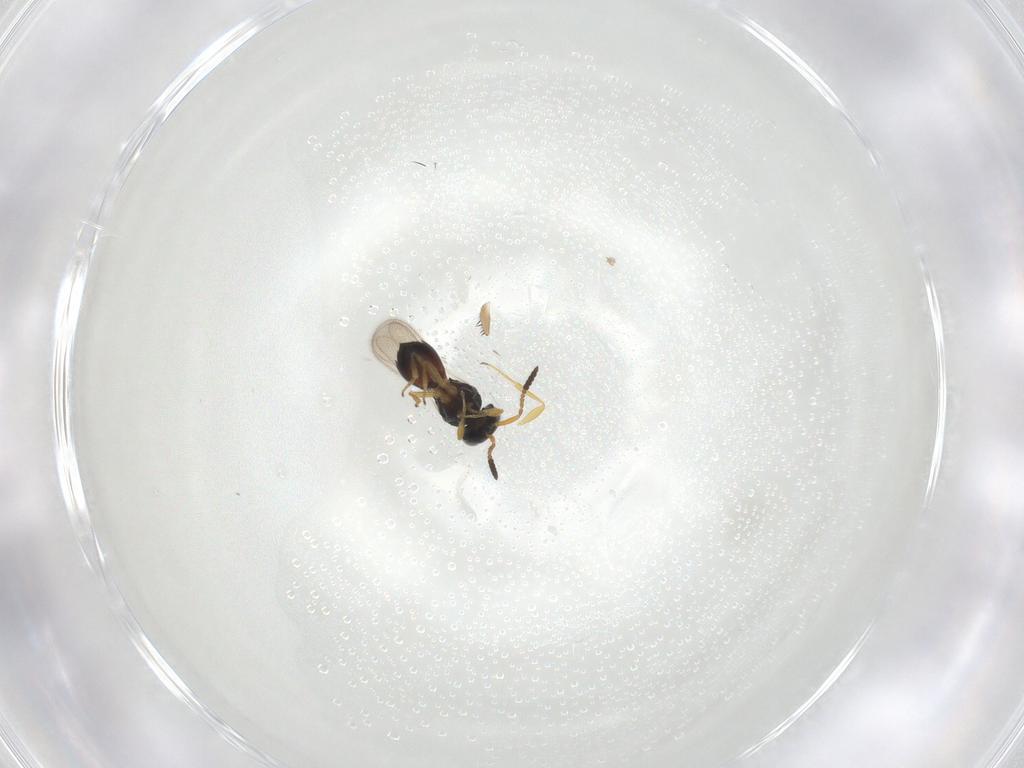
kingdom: Animalia
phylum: Arthropoda
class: Insecta
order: Hymenoptera
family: Scelionidae
